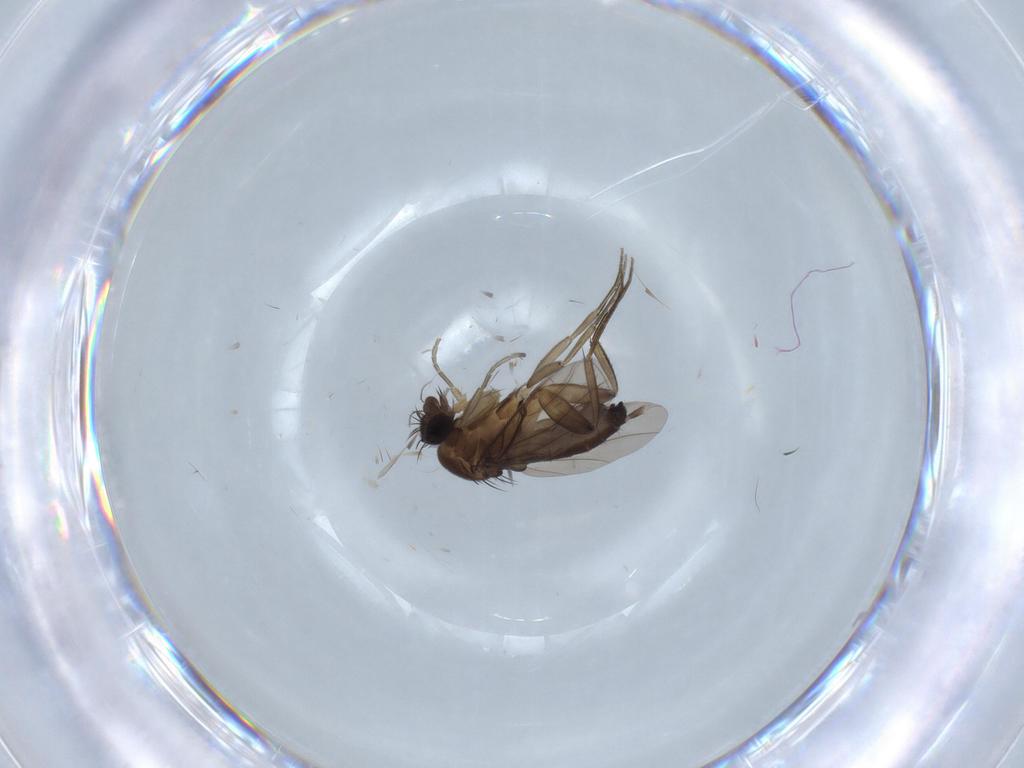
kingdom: Animalia
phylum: Arthropoda
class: Insecta
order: Diptera
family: Phoridae
